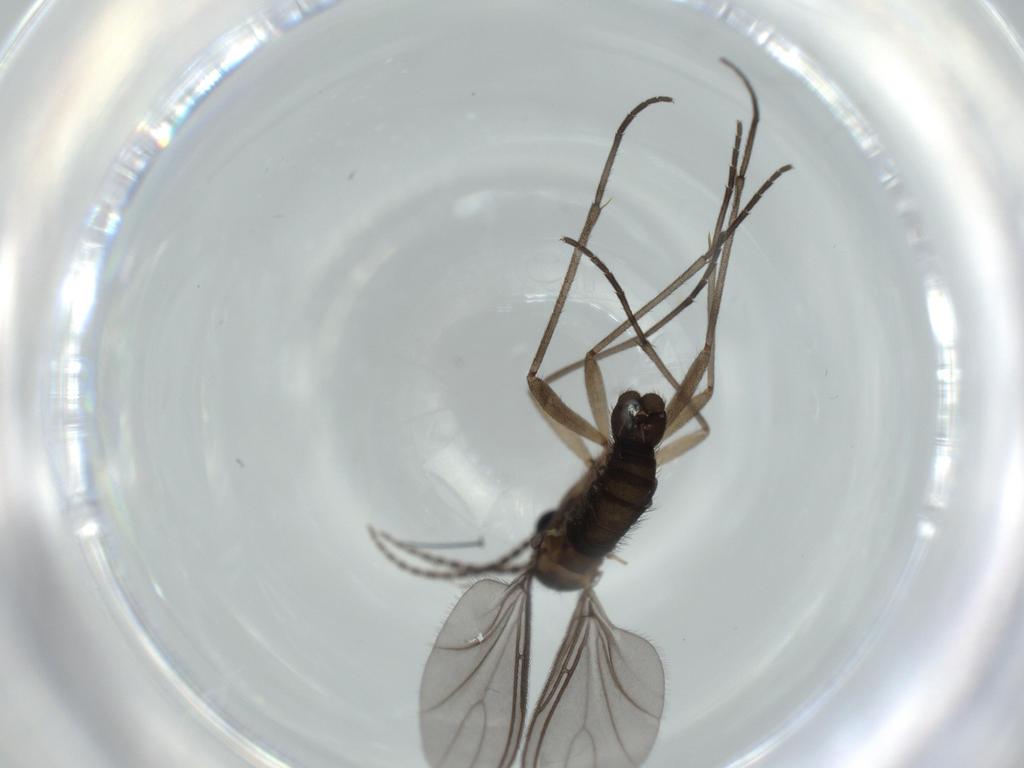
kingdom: Animalia
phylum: Arthropoda
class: Insecta
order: Diptera
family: Sciaridae
